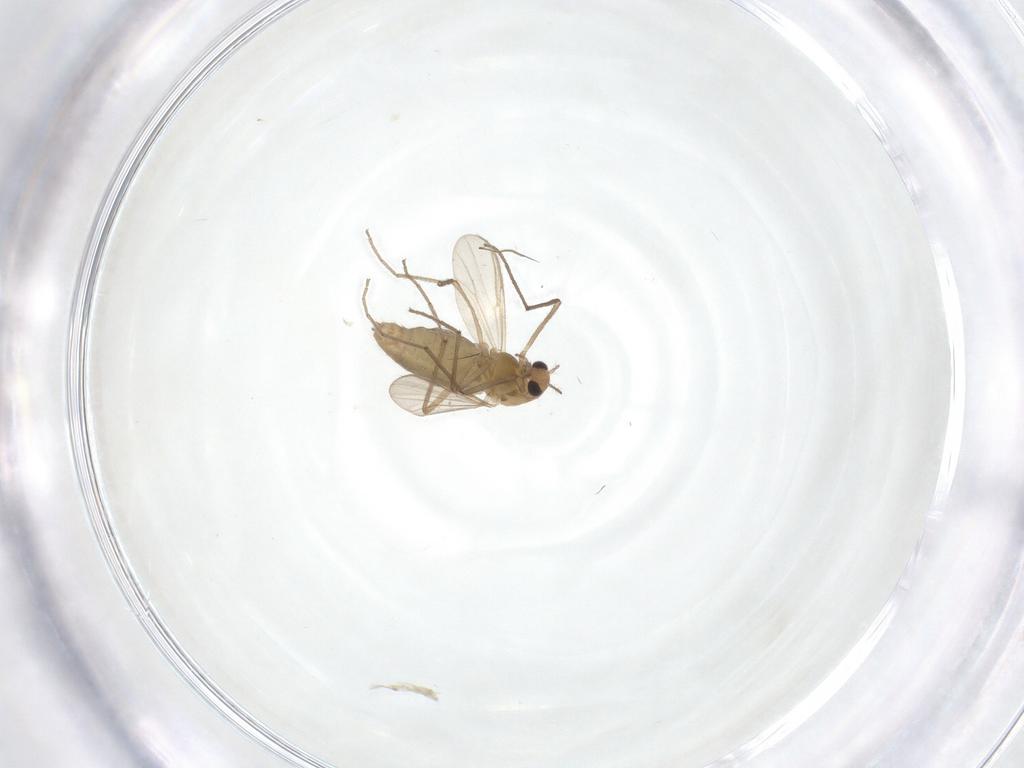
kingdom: Animalia
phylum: Arthropoda
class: Insecta
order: Diptera
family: Chironomidae
